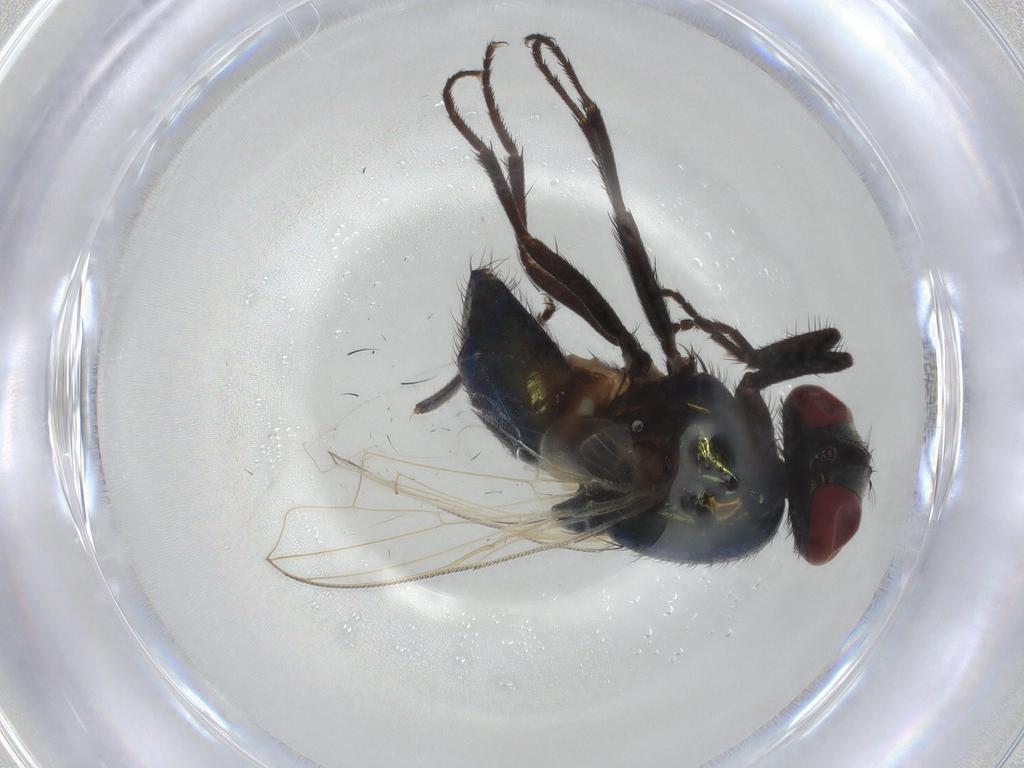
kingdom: Animalia
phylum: Arthropoda
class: Insecta
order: Diptera
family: Muscidae
